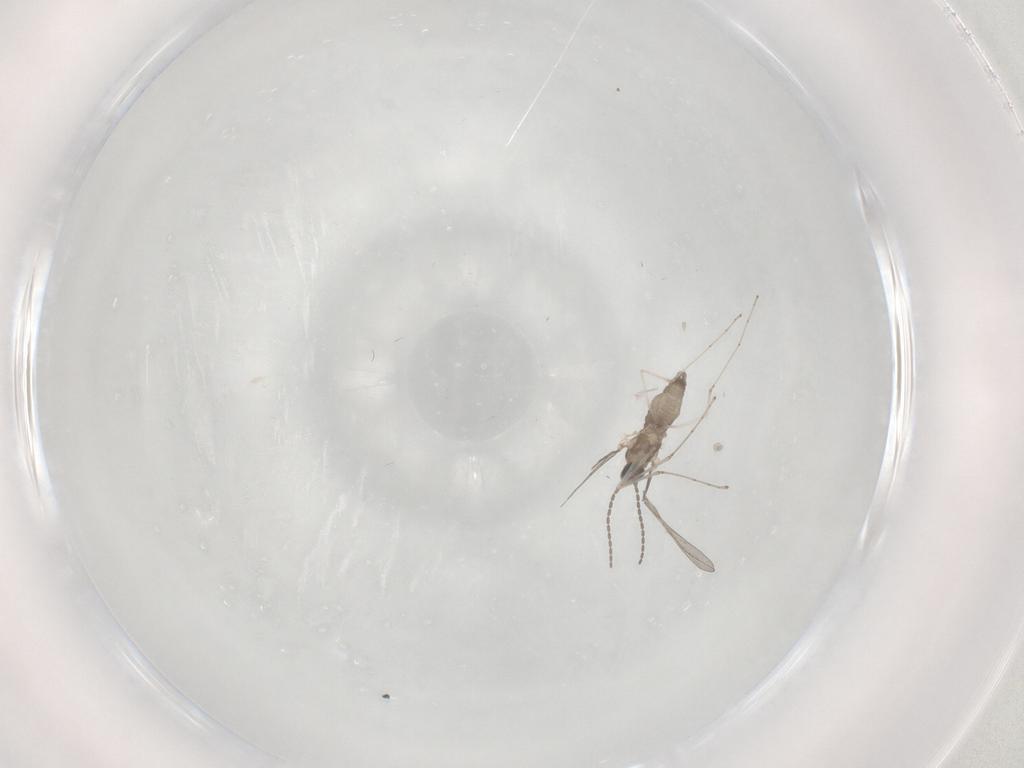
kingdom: Animalia
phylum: Arthropoda
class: Insecta
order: Diptera
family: Cecidomyiidae
